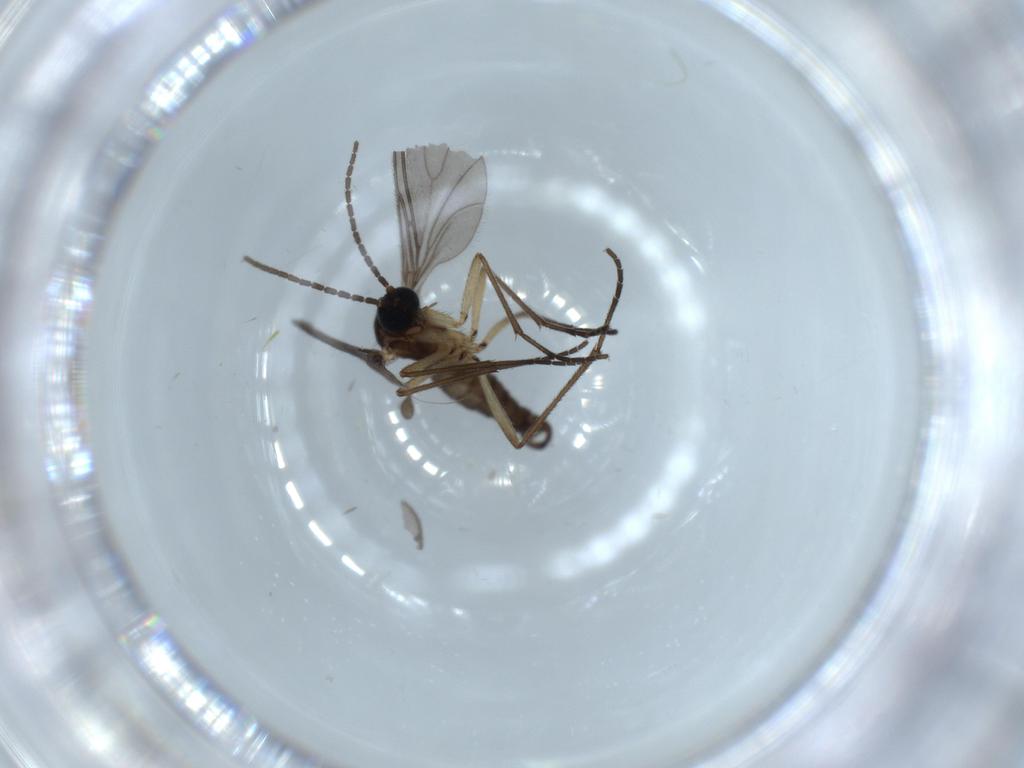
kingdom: Animalia
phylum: Arthropoda
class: Insecta
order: Diptera
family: Sciaridae
